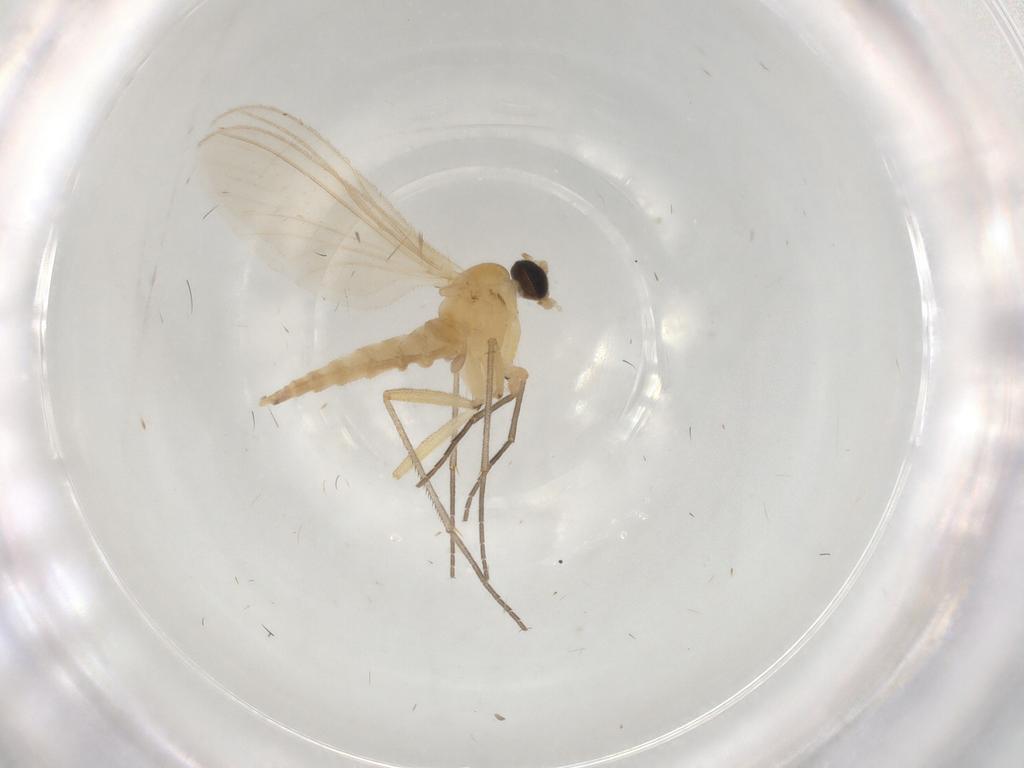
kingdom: Animalia
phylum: Arthropoda
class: Insecta
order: Diptera
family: Sciaridae
